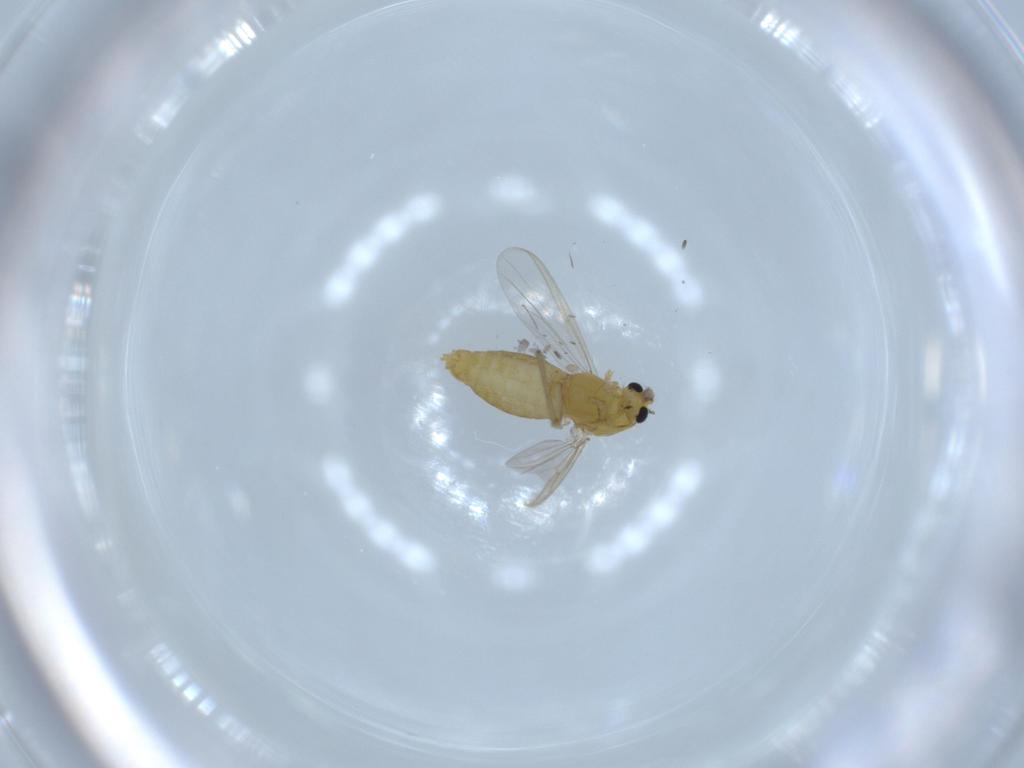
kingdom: Animalia
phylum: Arthropoda
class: Insecta
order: Diptera
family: Chironomidae
